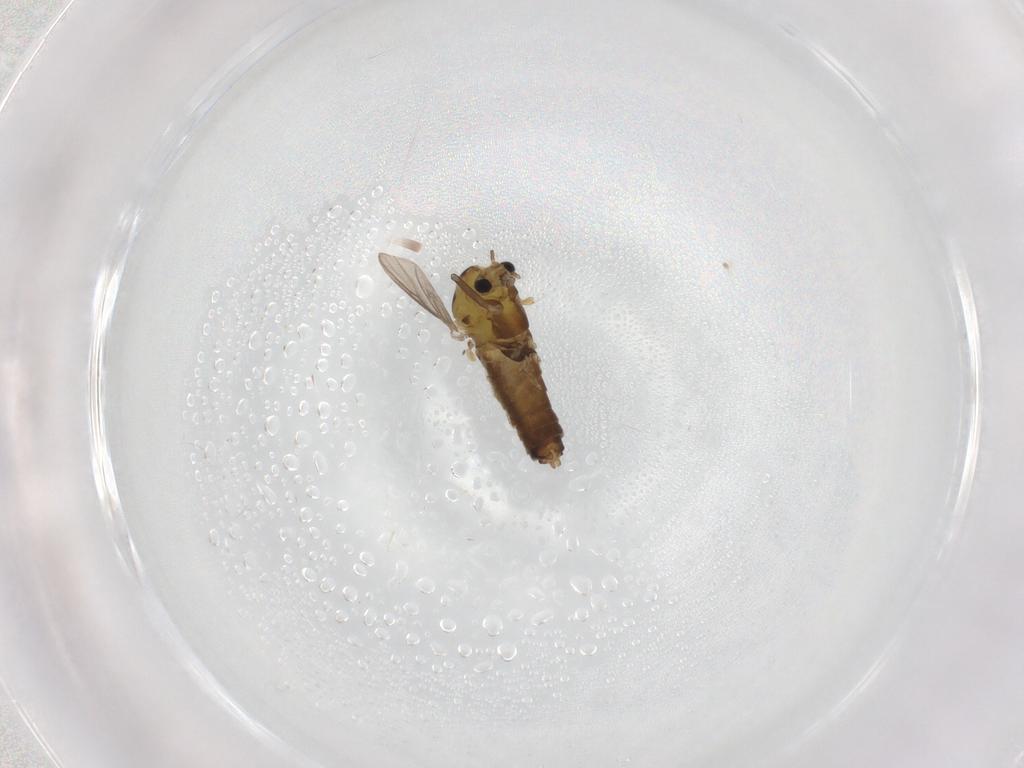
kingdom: Animalia
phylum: Arthropoda
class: Insecta
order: Diptera
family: Chironomidae
